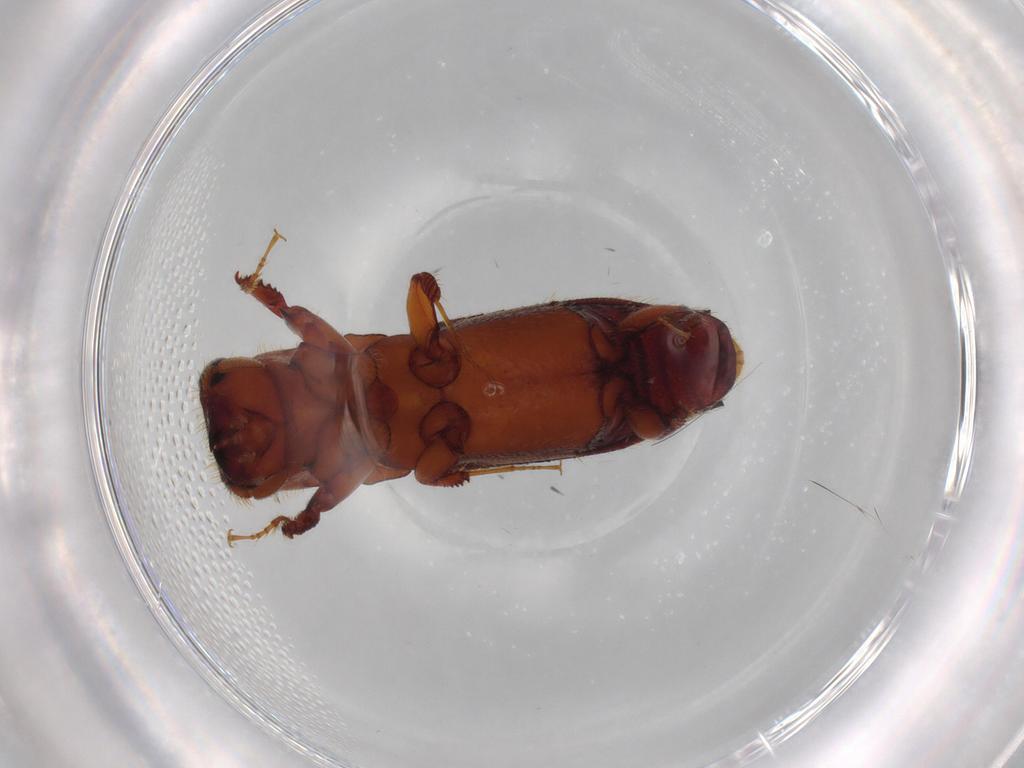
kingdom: Animalia
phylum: Arthropoda
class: Insecta
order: Coleoptera
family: Curculionidae
